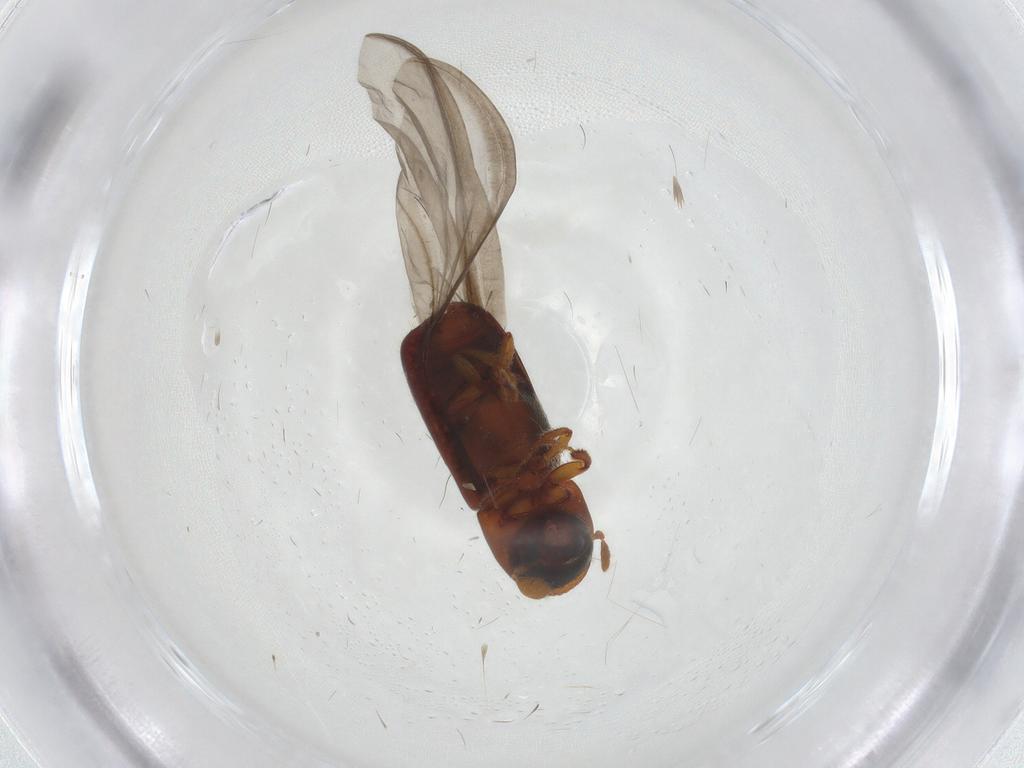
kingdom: Animalia
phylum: Arthropoda
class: Insecta
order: Coleoptera
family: Curculionidae
